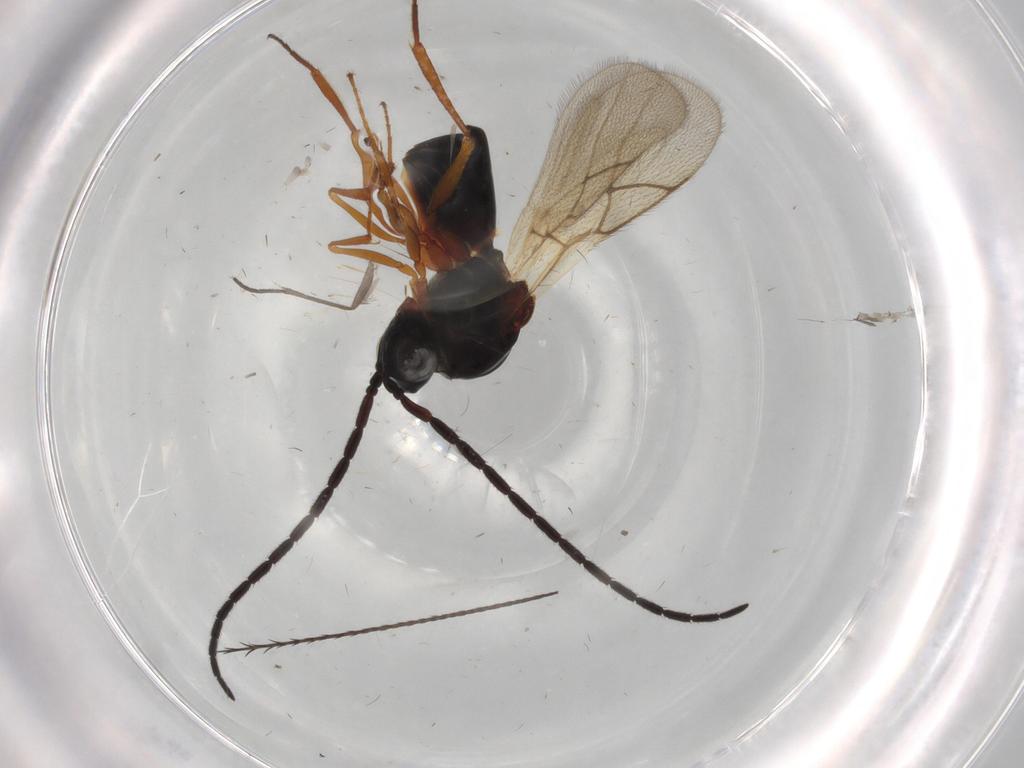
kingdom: Animalia
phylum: Arthropoda
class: Insecta
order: Hymenoptera
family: Figitidae
